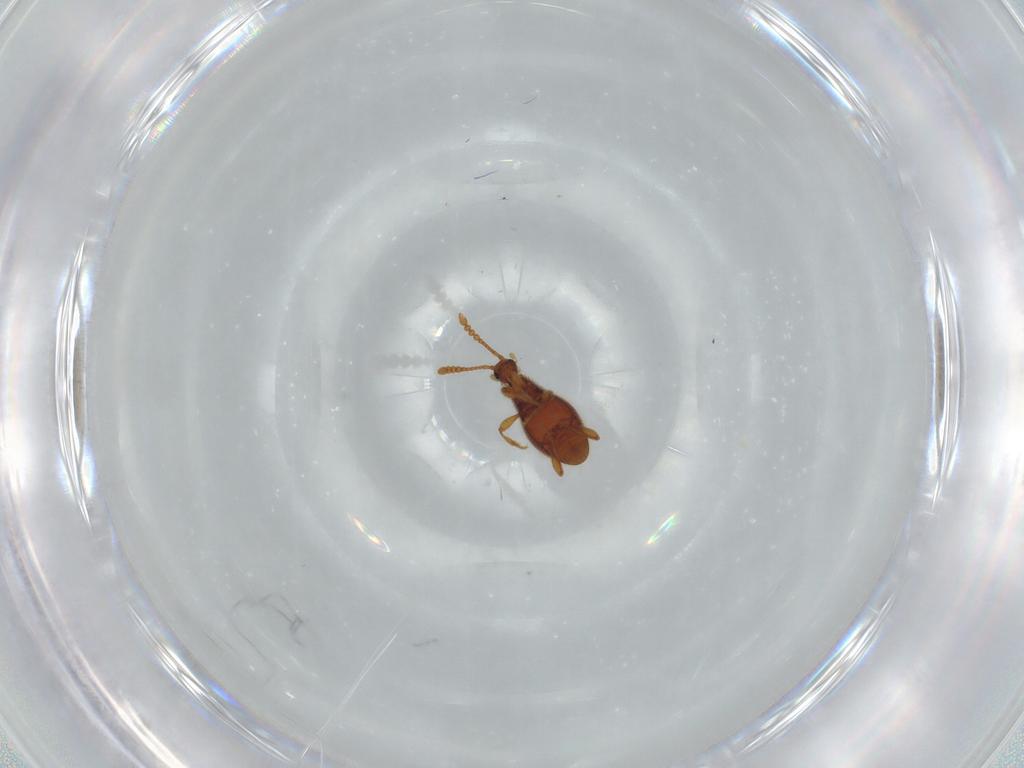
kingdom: Animalia
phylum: Arthropoda
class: Insecta
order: Coleoptera
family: Staphylinidae
